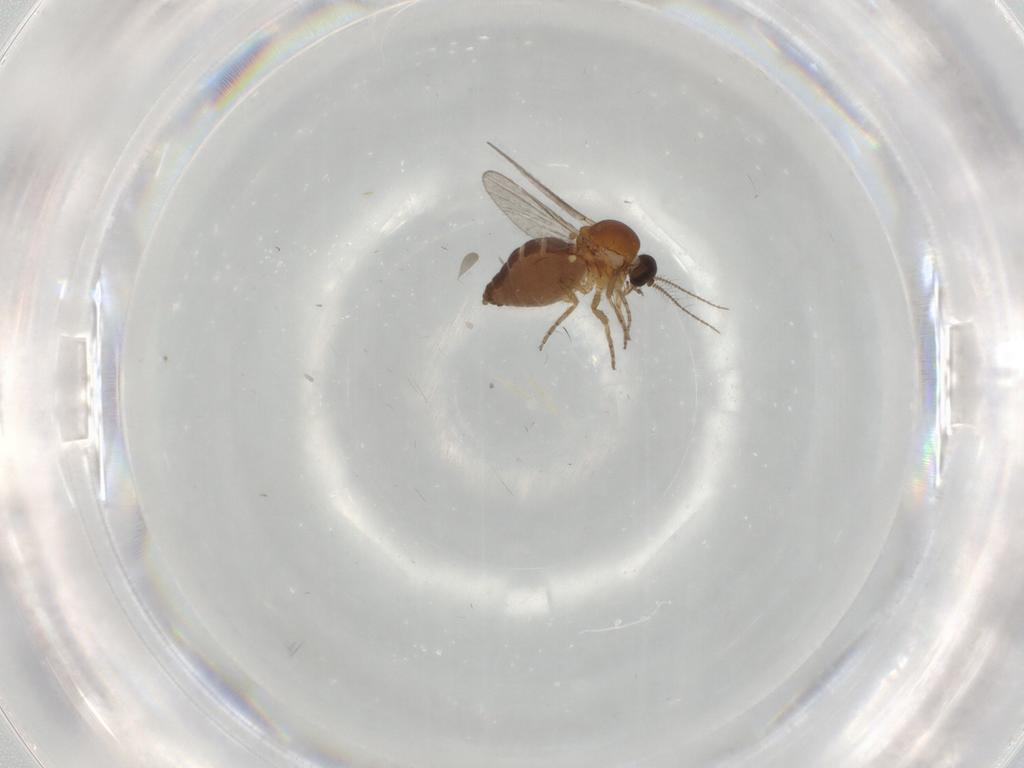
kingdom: Animalia
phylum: Arthropoda
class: Insecta
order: Diptera
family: Ceratopogonidae
